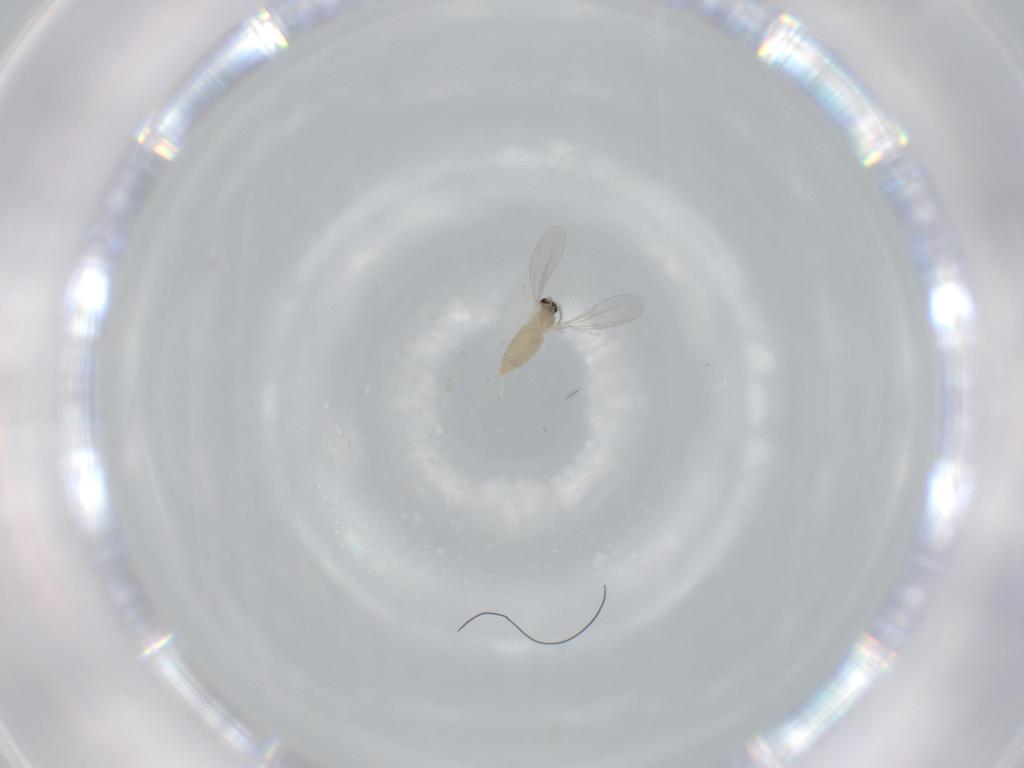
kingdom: Animalia
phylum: Arthropoda
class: Insecta
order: Diptera
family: Cecidomyiidae
